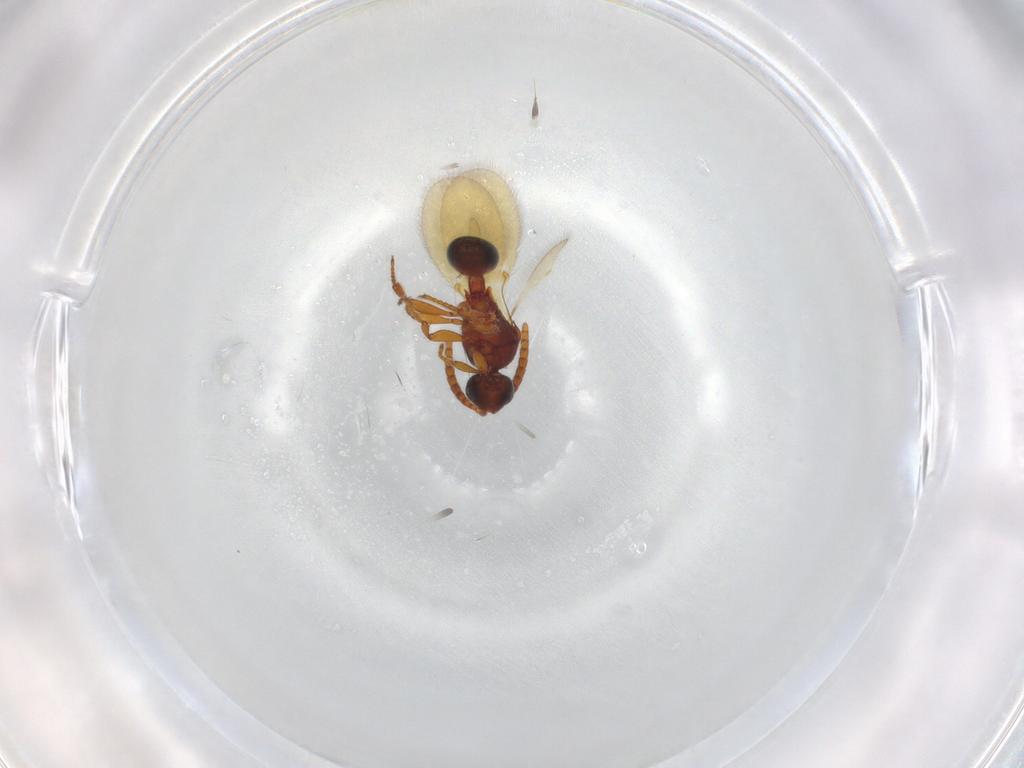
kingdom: Animalia
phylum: Arthropoda
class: Insecta
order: Hymenoptera
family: Diapriidae
